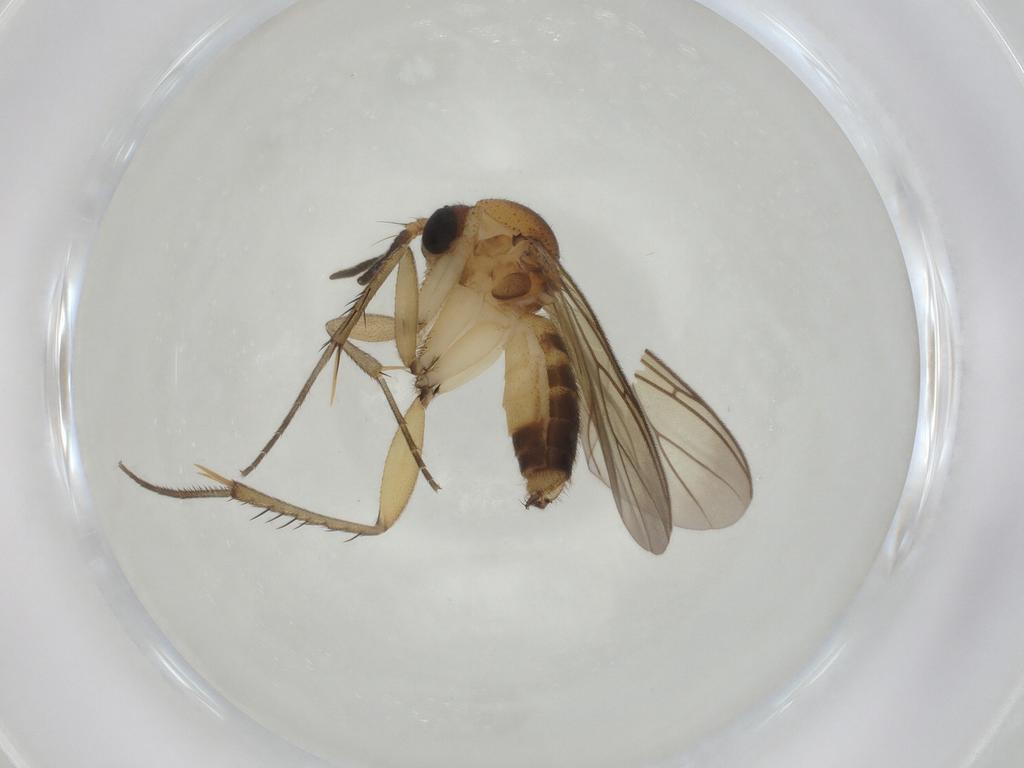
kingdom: Animalia
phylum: Arthropoda
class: Insecta
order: Diptera
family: Mycetophilidae
